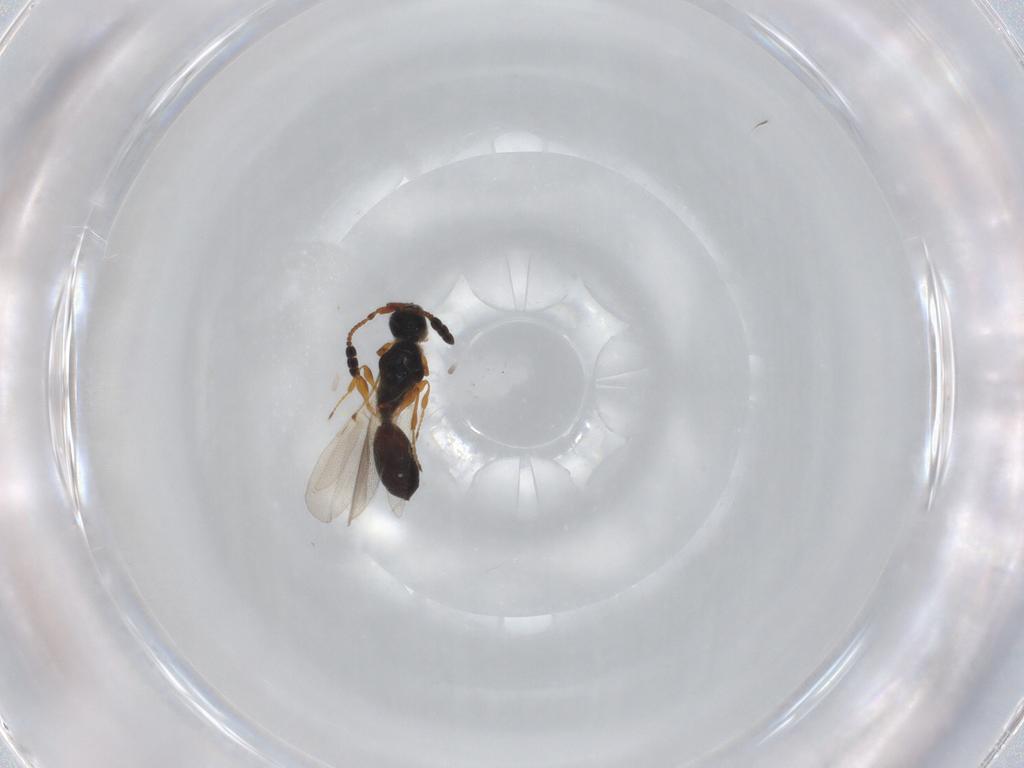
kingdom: Animalia
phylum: Arthropoda
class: Insecta
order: Hymenoptera
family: Diapriidae
